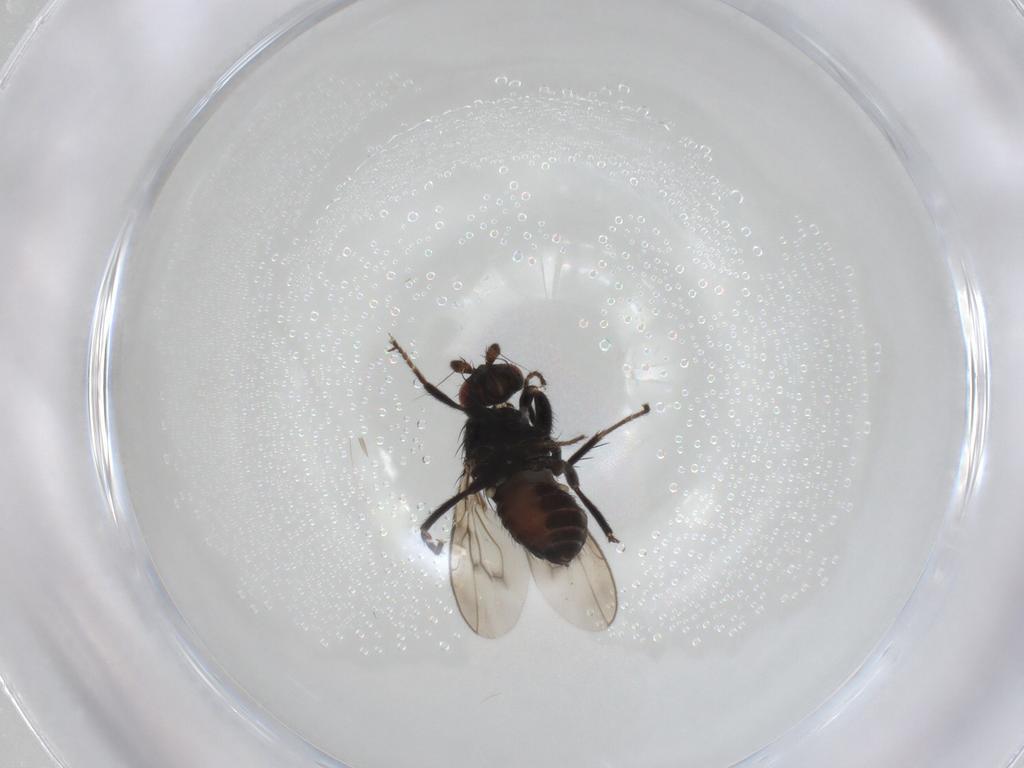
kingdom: Animalia
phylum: Arthropoda
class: Insecta
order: Diptera
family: Sphaeroceridae
